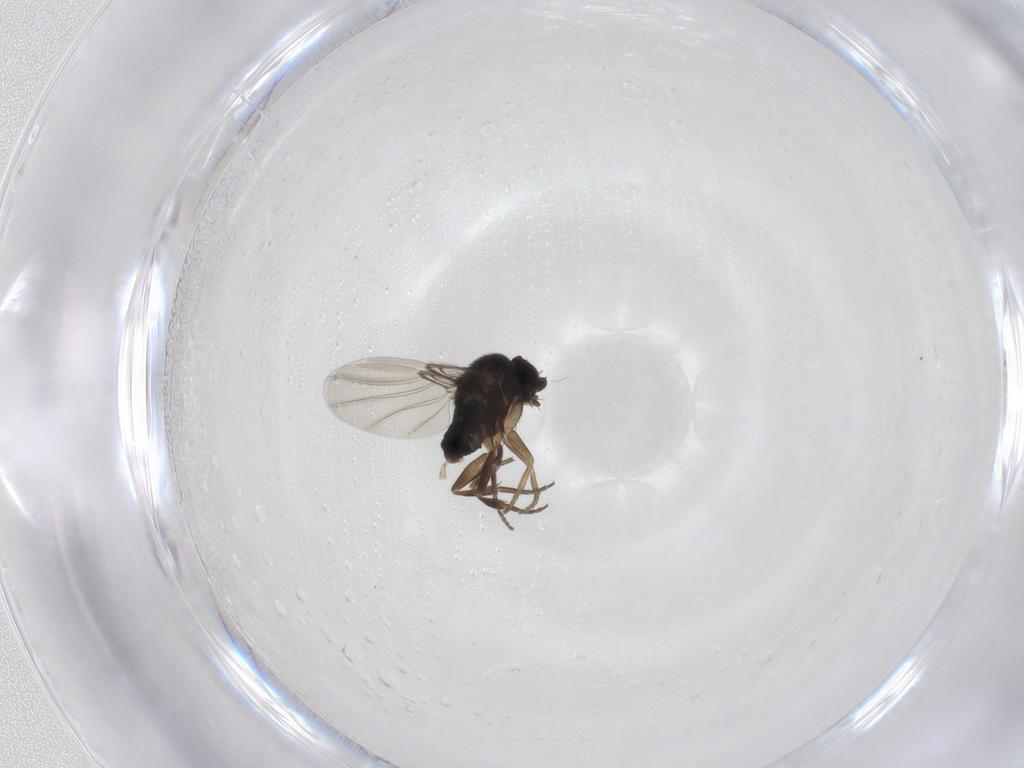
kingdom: Animalia
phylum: Arthropoda
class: Insecta
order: Diptera
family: Phoridae
